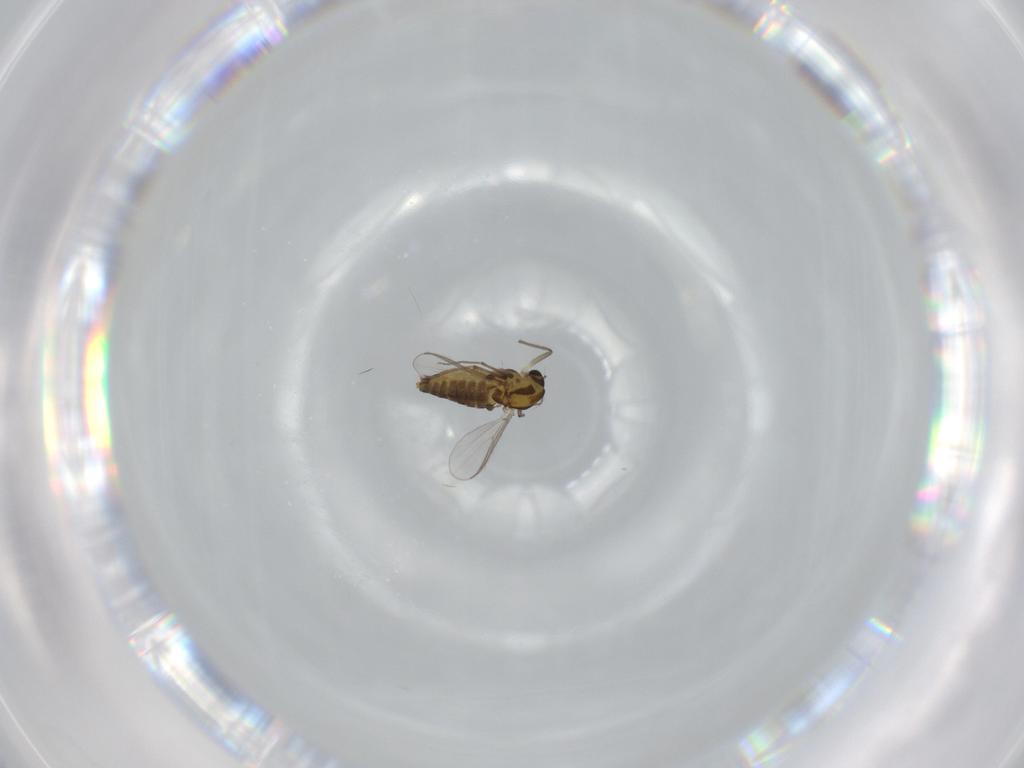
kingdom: Animalia
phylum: Arthropoda
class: Insecta
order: Diptera
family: Chironomidae
